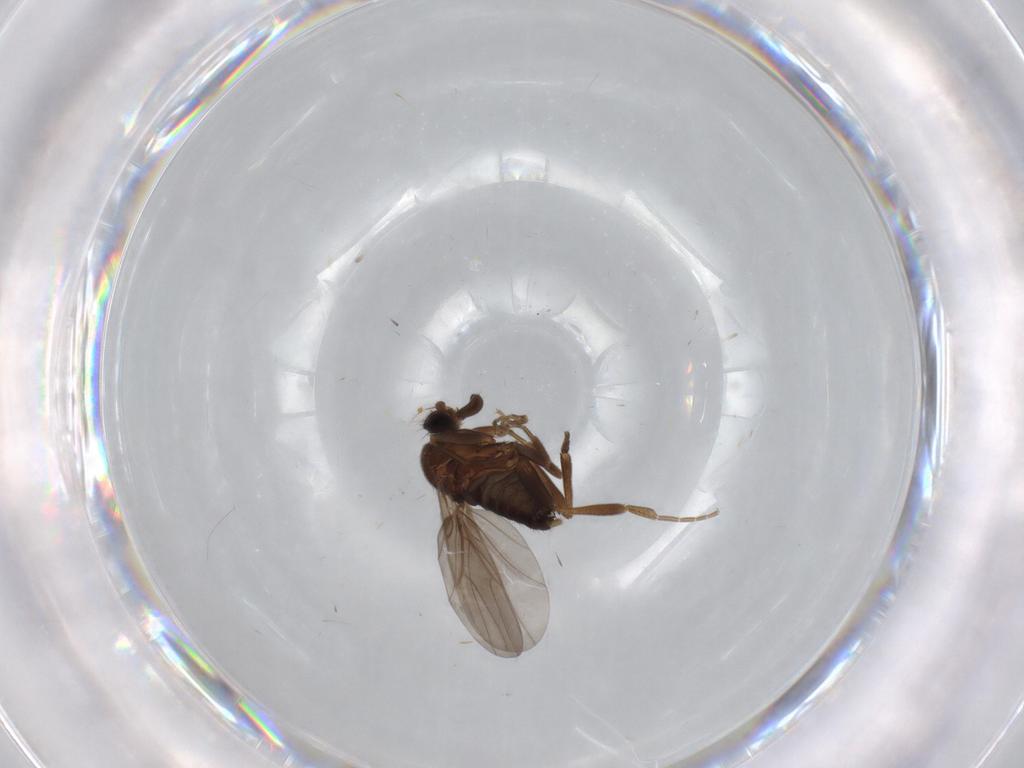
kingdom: Animalia
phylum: Arthropoda
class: Insecta
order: Diptera
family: Phoridae
